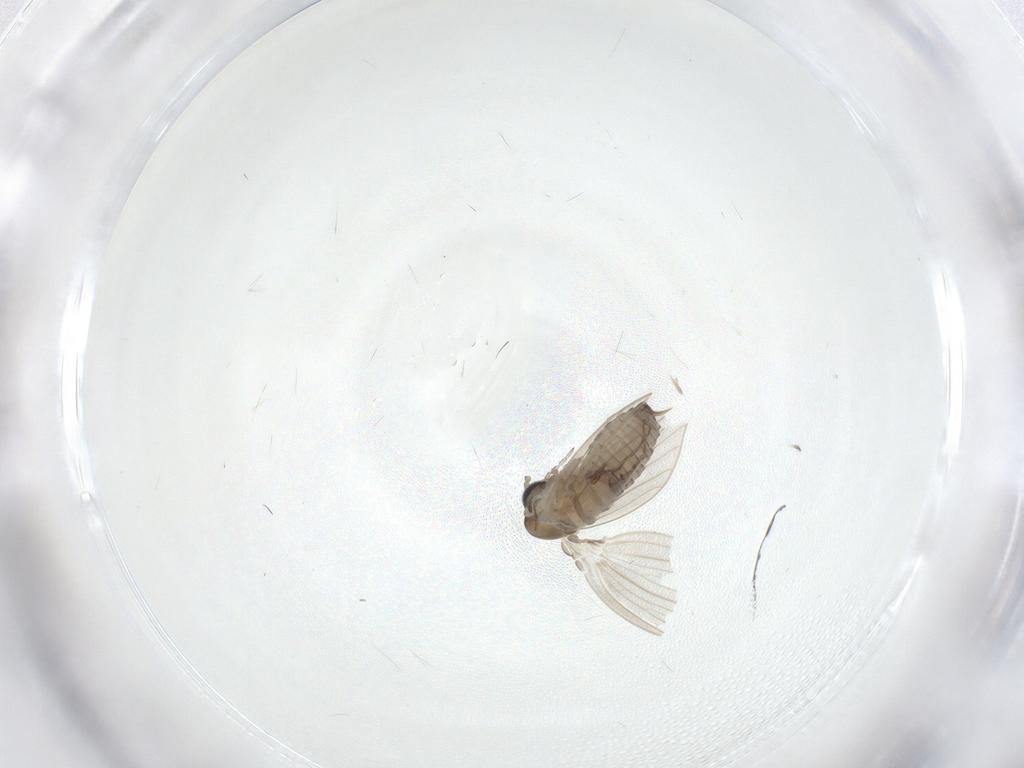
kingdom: Animalia
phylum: Arthropoda
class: Insecta
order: Diptera
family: Psychodidae
